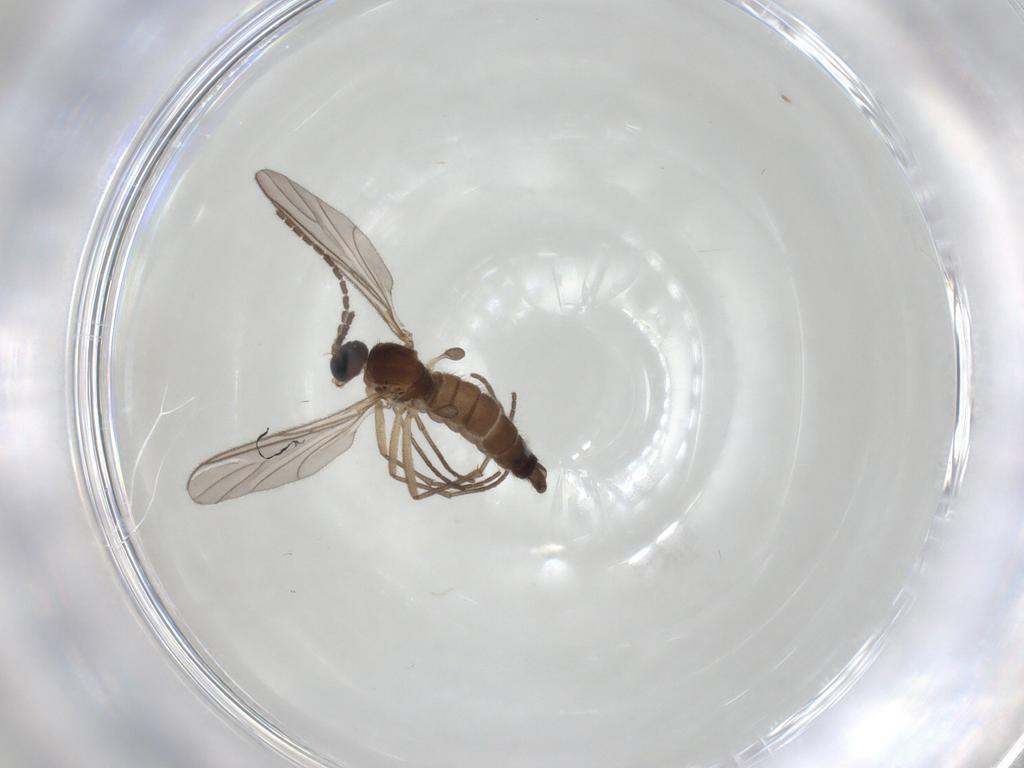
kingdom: Animalia
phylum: Arthropoda
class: Insecta
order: Diptera
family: Sciaridae
